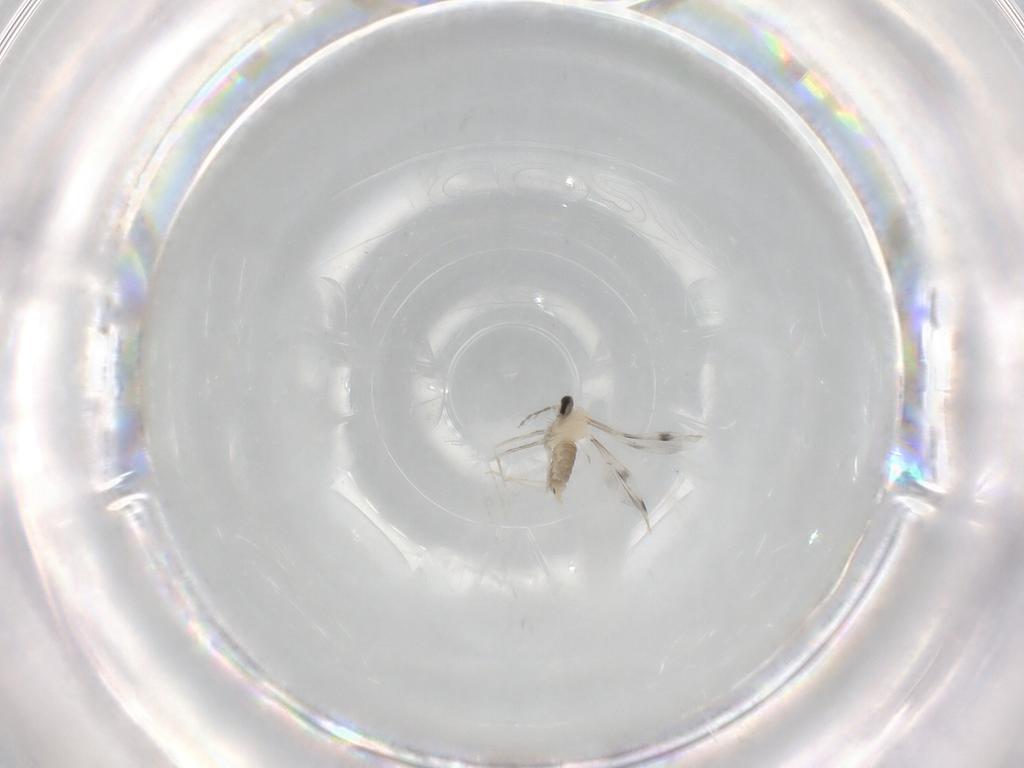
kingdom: Animalia
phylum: Arthropoda
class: Insecta
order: Diptera
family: Cecidomyiidae
